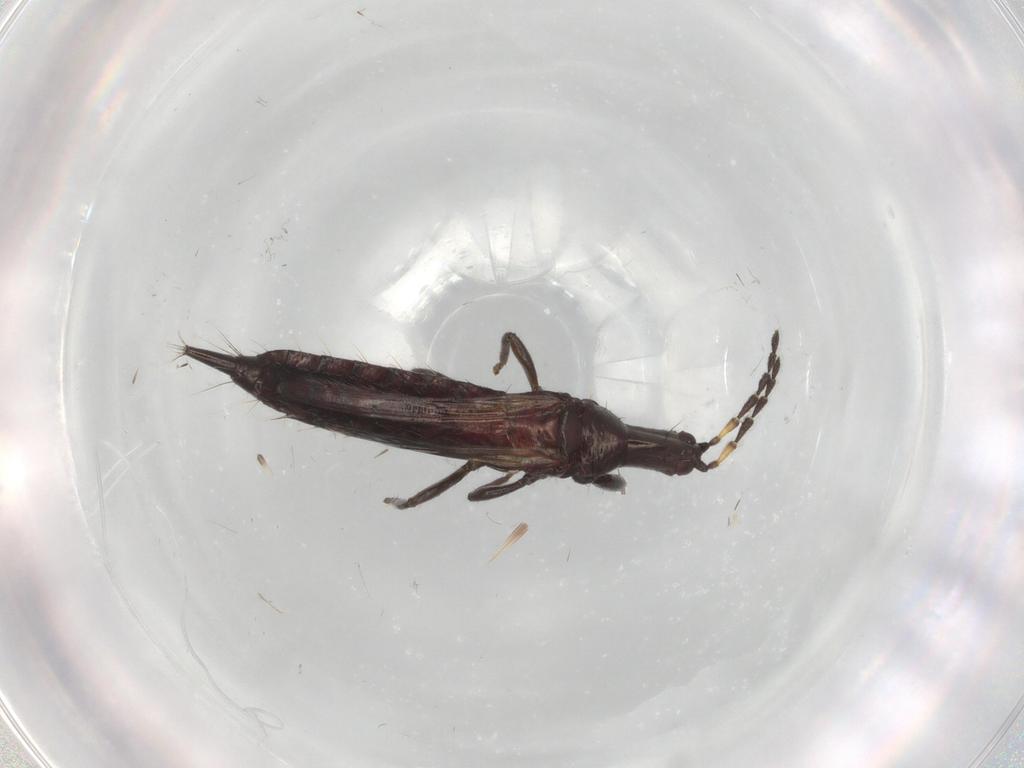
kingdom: Animalia
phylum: Arthropoda
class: Insecta
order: Thysanoptera
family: Phlaeothripidae
